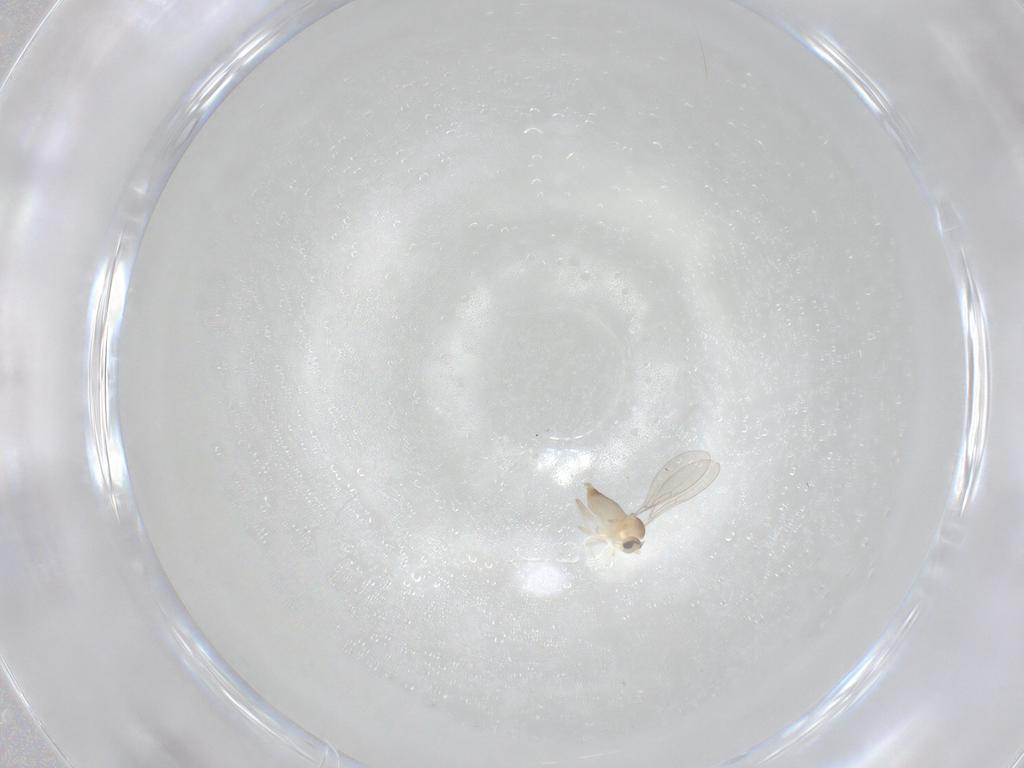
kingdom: Animalia
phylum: Arthropoda
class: Insecta
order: Diptera
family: Cecidomyiidae
